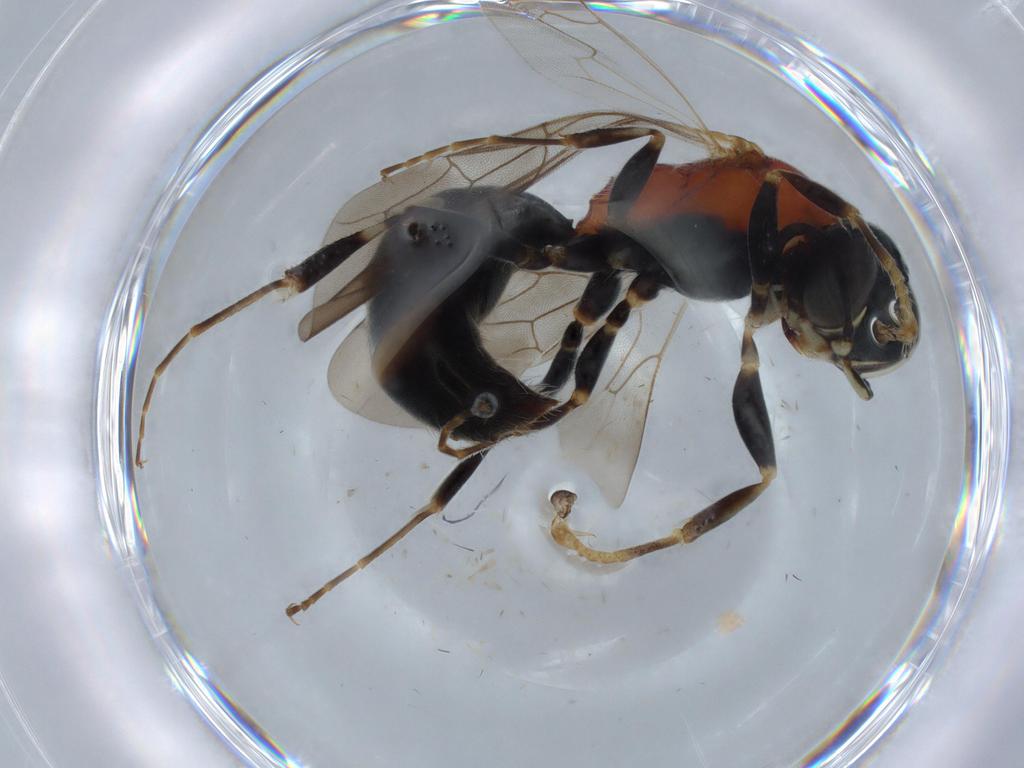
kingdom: Animalia
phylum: Arthropoda
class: Insecta
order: Hymenoptera
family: Bembicidae
